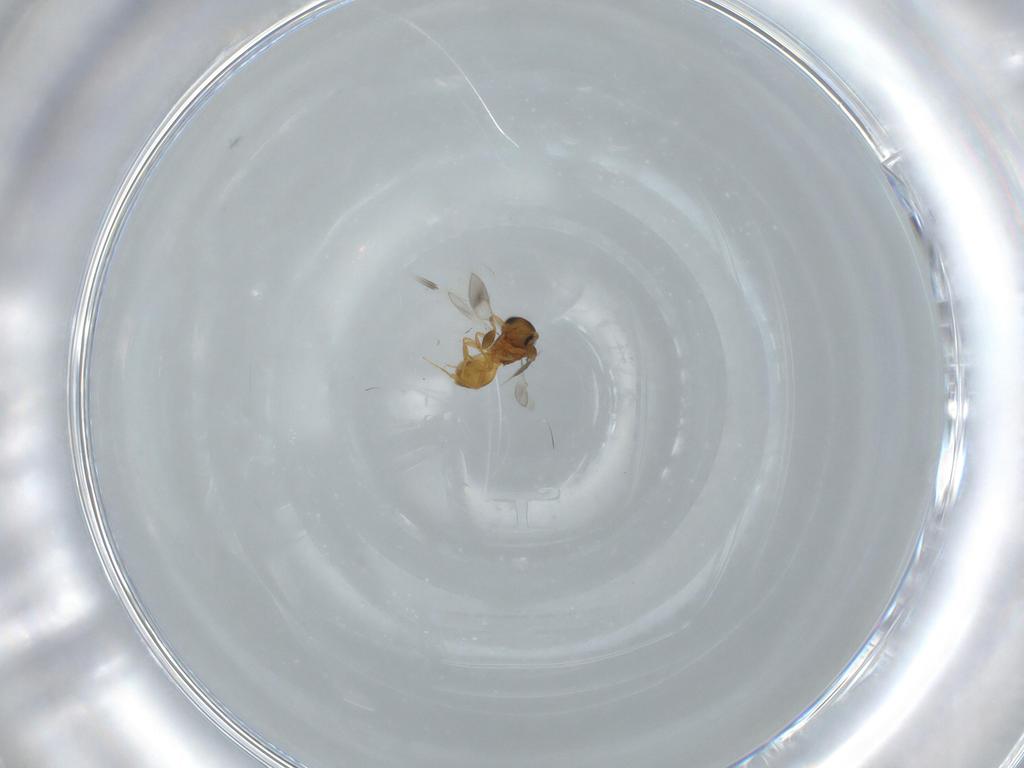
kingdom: Animalia
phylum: Arthropoda
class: Insecta
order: Hymenoptera
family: Scelionidae
